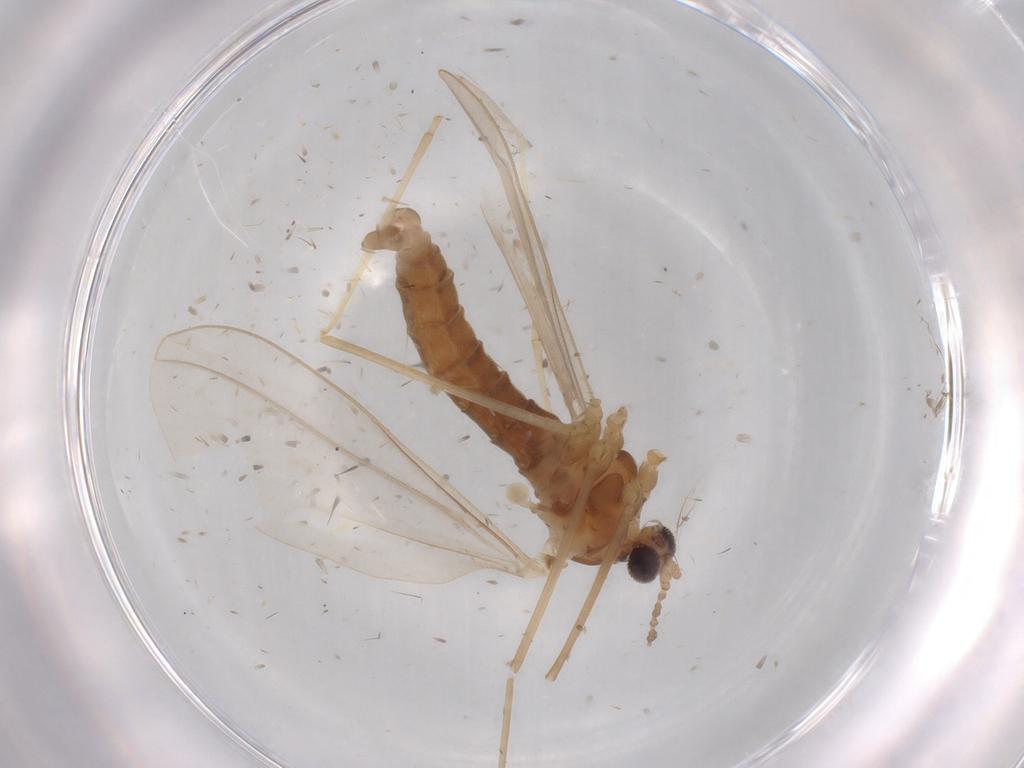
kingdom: Animalia
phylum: Arthropoda
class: Insecta
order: Diptera
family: Cecidomyiidae
